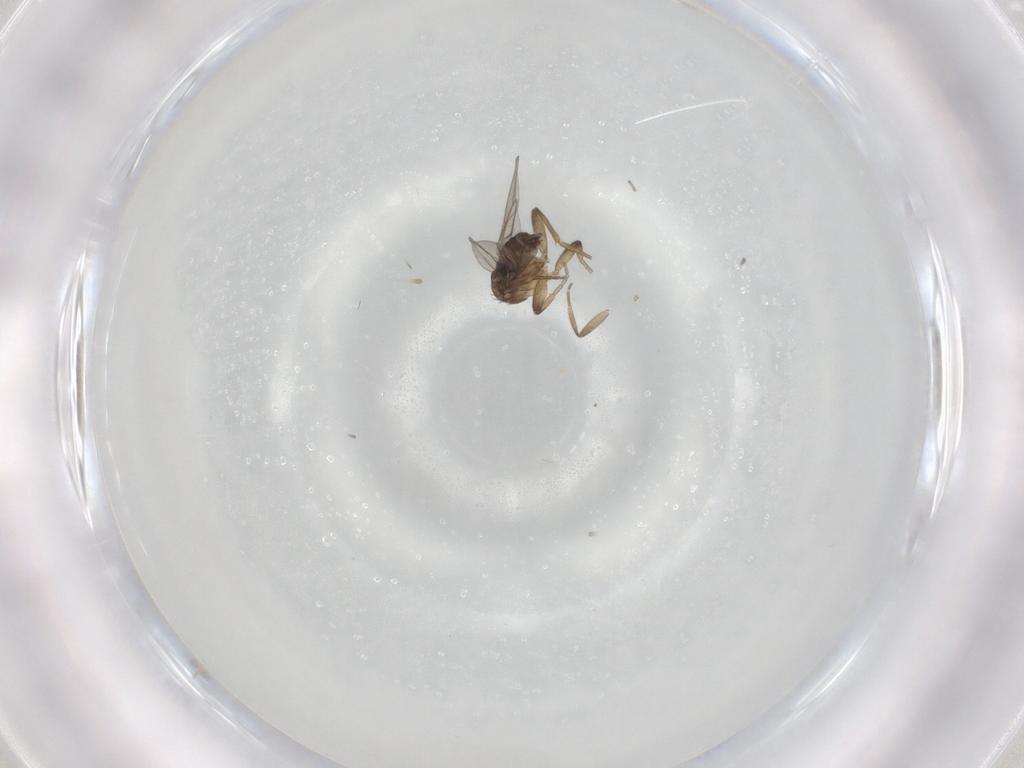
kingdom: Animalia
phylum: Arthropoda
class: Insecta
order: Diptera
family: Phoridae
